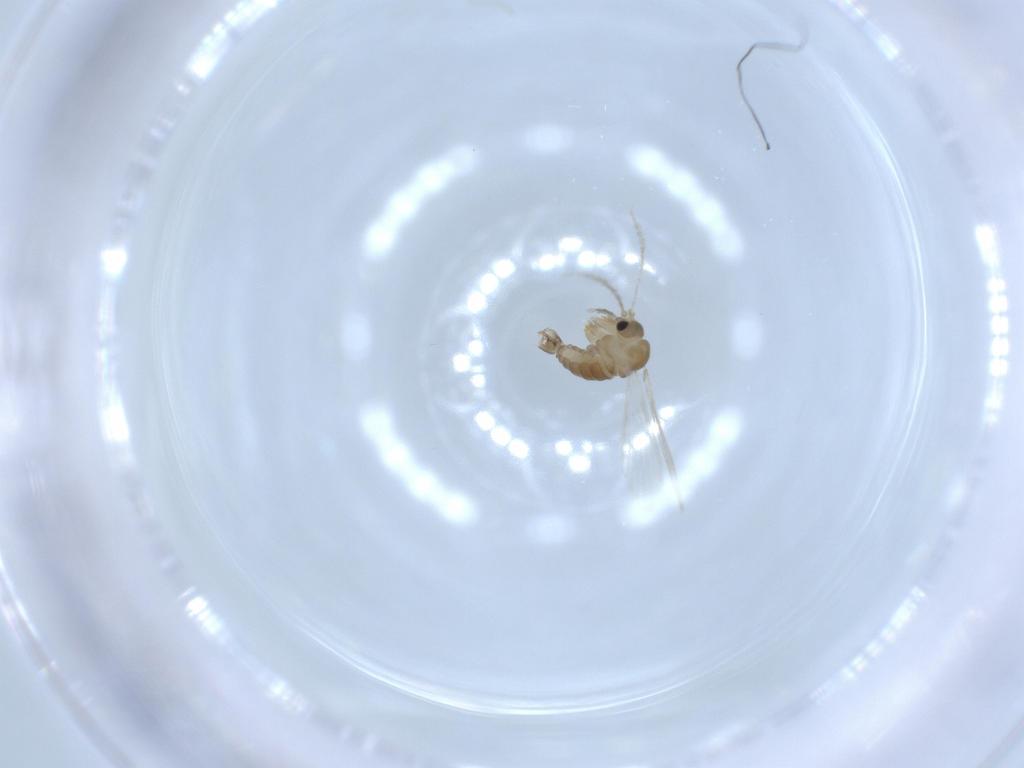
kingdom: Animalia
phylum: Arthropoda
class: Insecta
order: Diptera
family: Psychodidae
